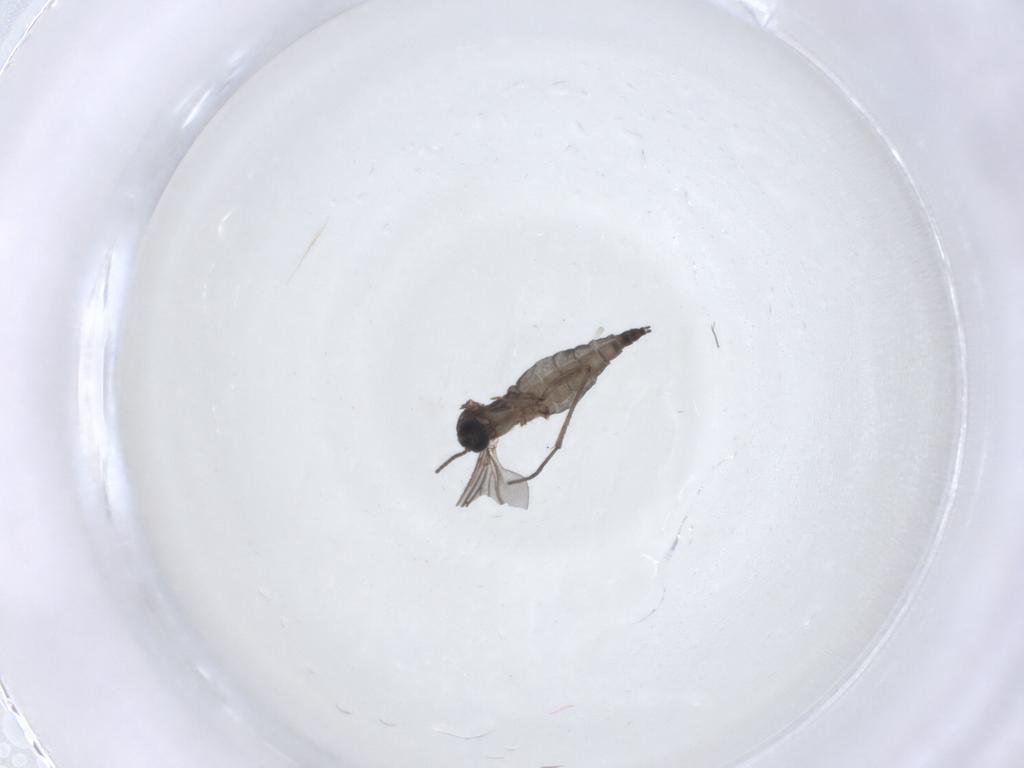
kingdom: Animalia
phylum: Arthropoda
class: Insecta
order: Diptera
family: Sciaridae
